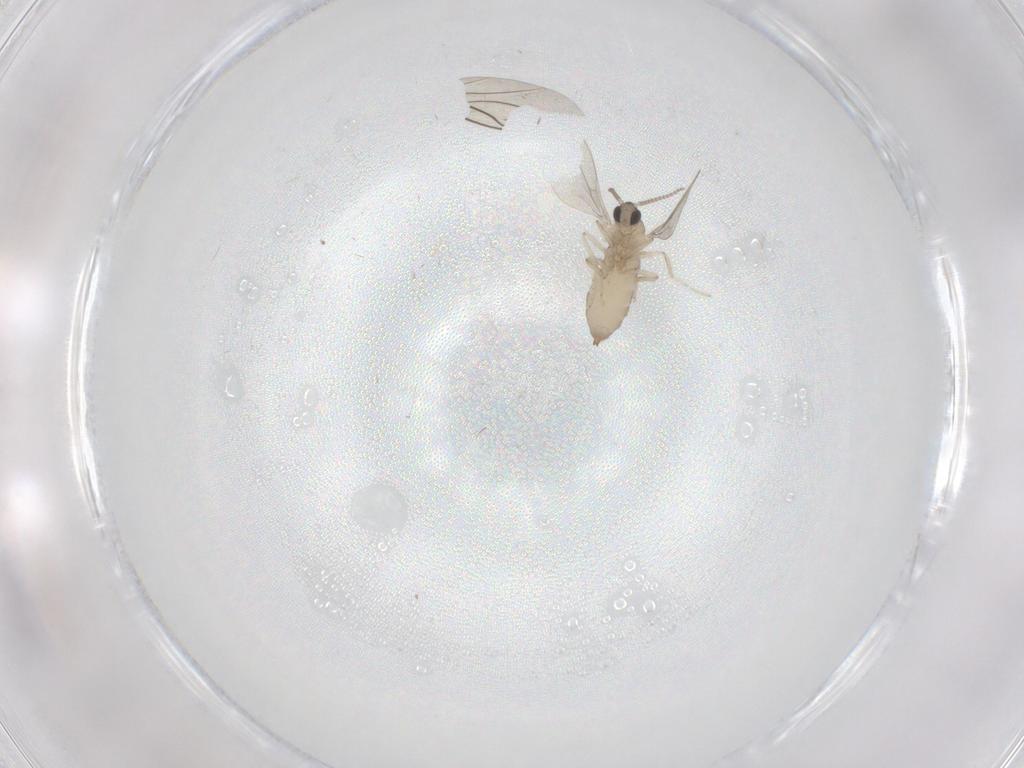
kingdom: Animalia
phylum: Arthropoda
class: Insecta
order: Diptera
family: Cecidomyiidae
